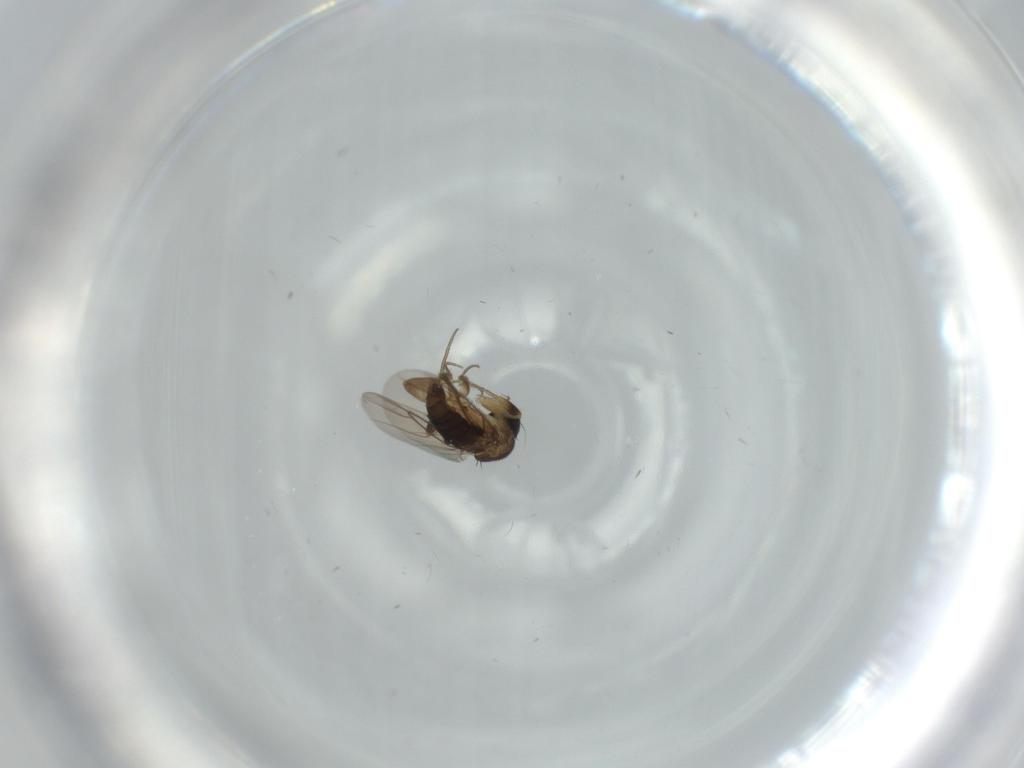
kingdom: Animalia
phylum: Arthropoda
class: Insecta
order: Diptera
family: Phoridae
